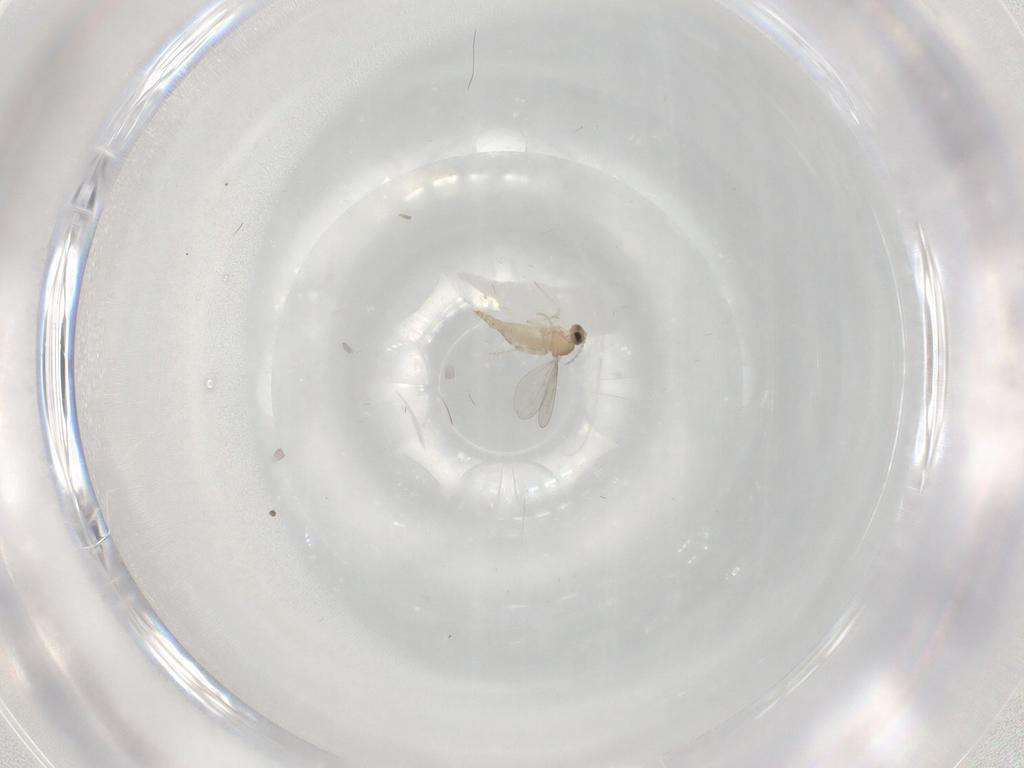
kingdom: Animalia
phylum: Arthropoda
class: Insecta
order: Diptera
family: Cecidomyiidae
